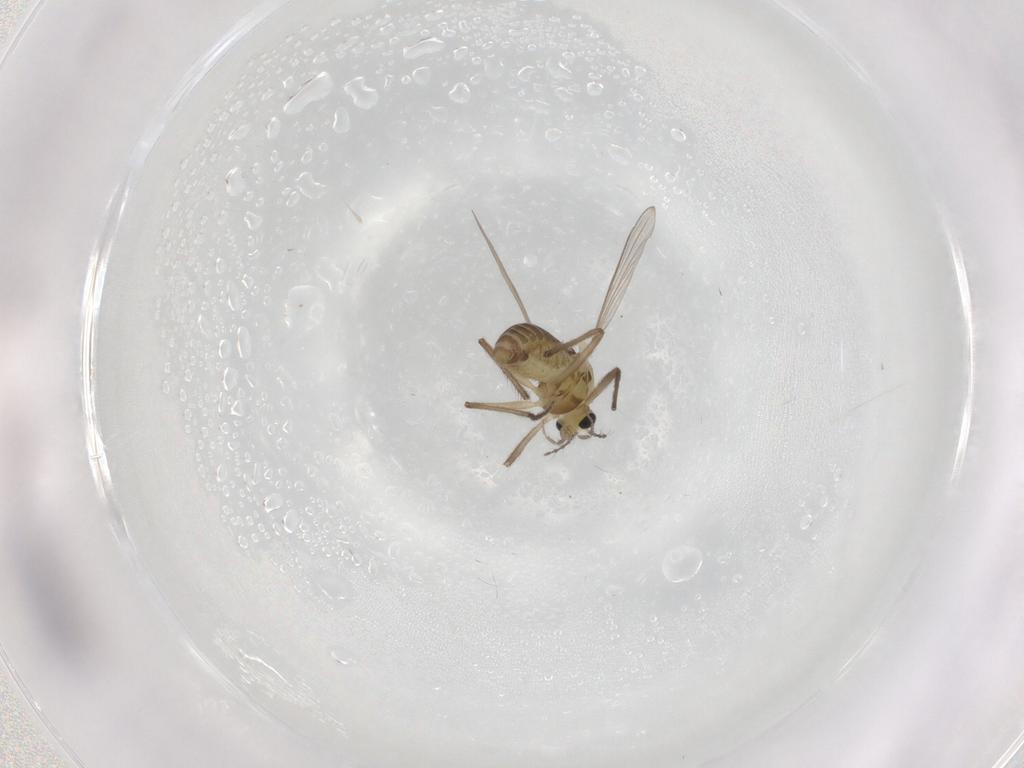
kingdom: Animalia
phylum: Arthropoda
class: Insecta
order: Diptera
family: Chironomidae
